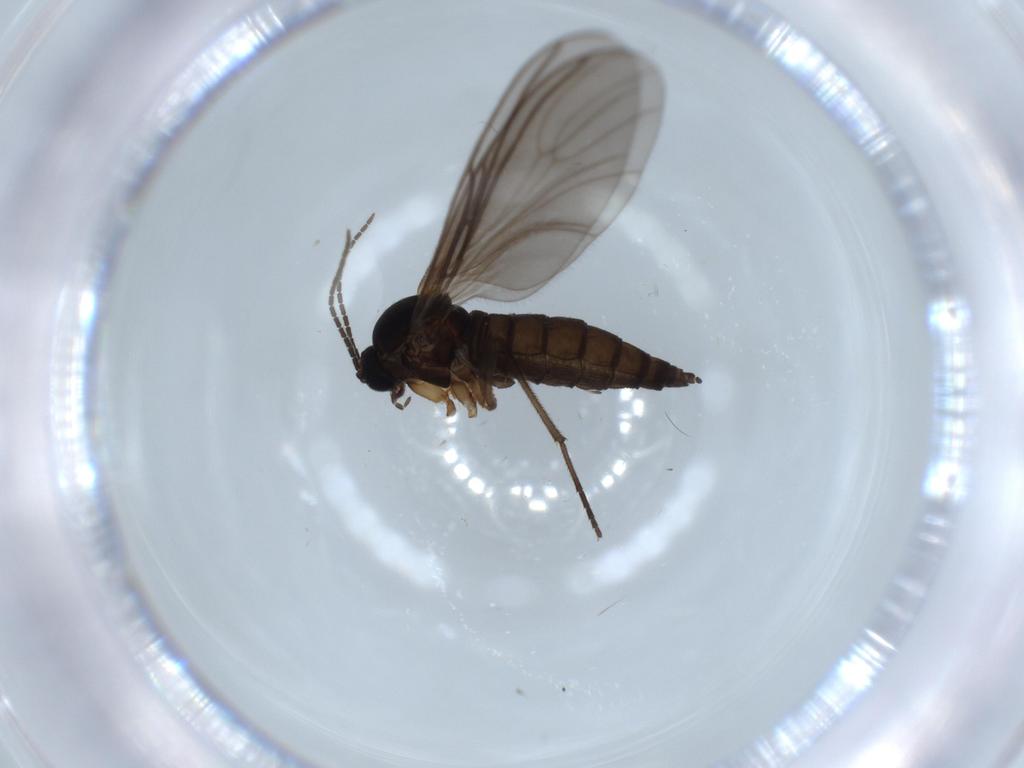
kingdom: Animalia
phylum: Arthropoda
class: Insecta
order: Diptera
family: Sciaridae
